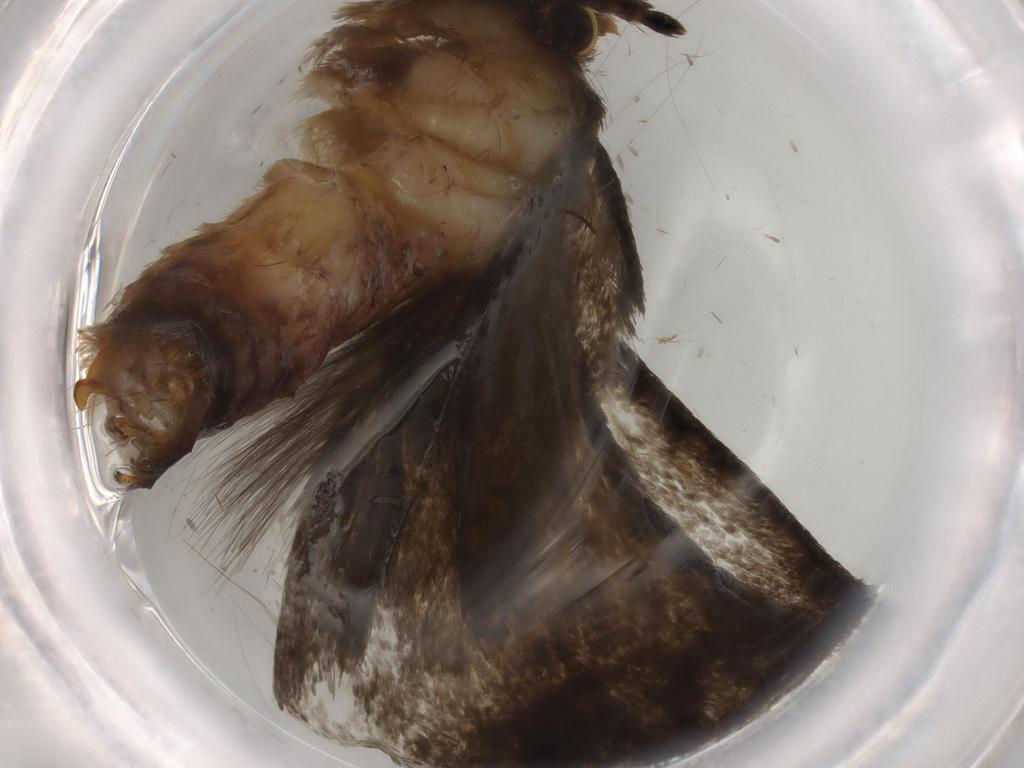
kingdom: Animalia
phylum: Arthropoda
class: Insecta
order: Lepidoptera
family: Tineidae
